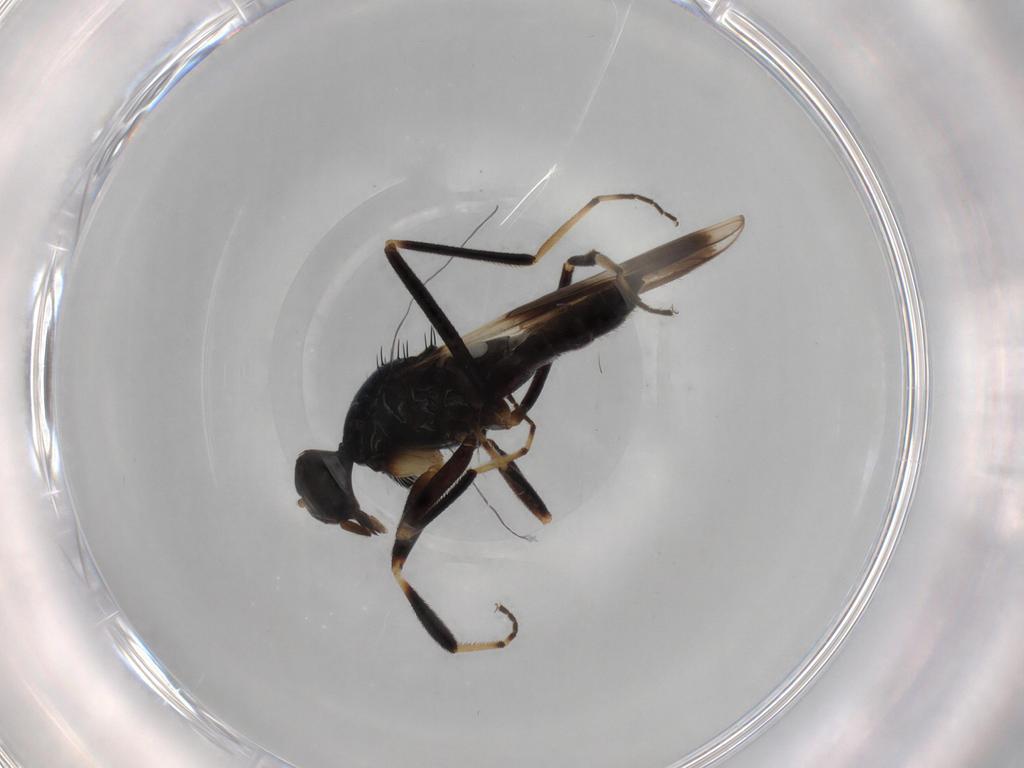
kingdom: Animalia
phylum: Arthropoda
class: Insecta
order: Diptera
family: Hybotidae
